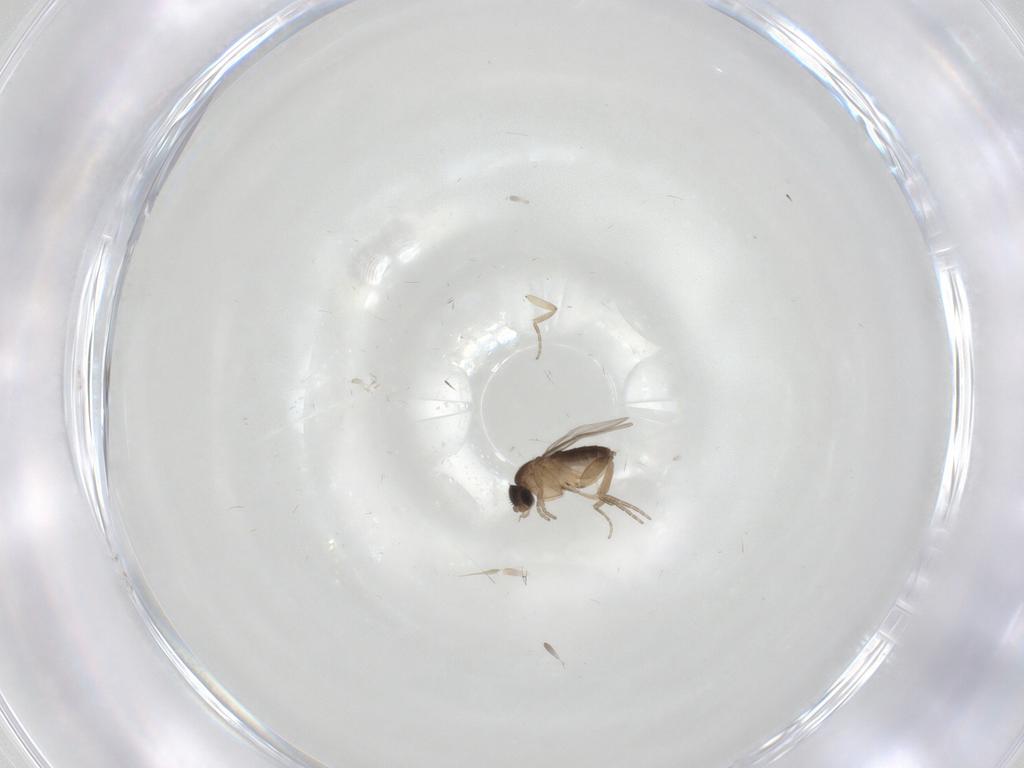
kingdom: Animalia
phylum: Arthropoda
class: Insecta
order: Diptera
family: Phoridae
